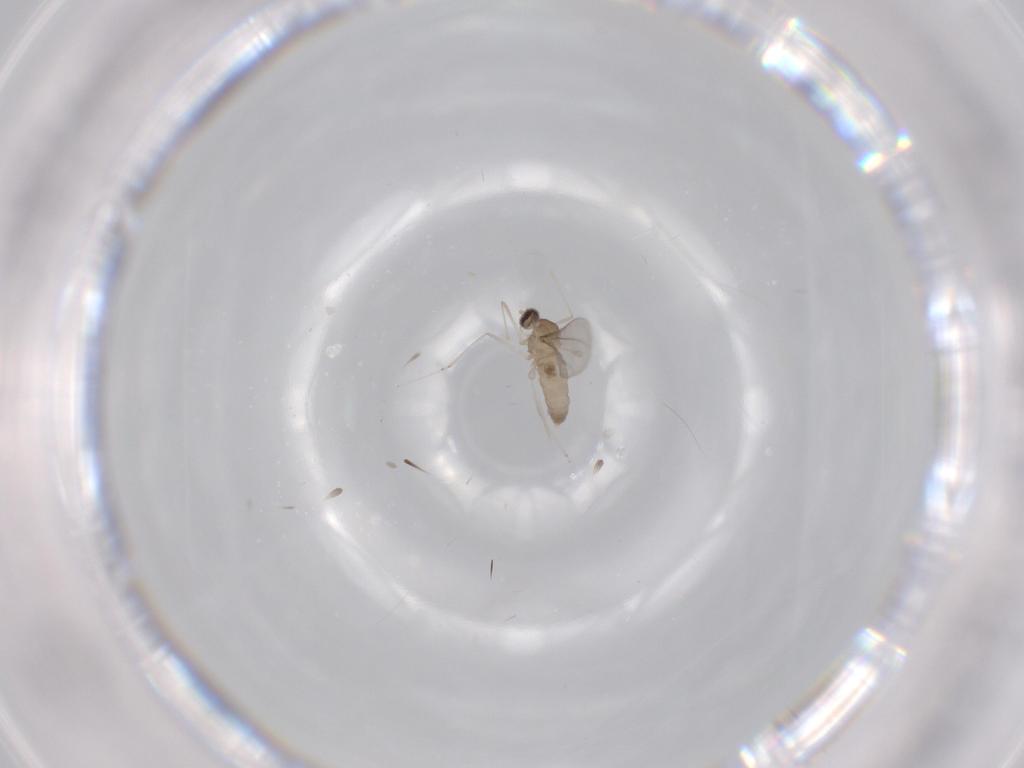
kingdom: Animalia
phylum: Arthropoda
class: Insecta
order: Diptera
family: Cecidomyiidae
